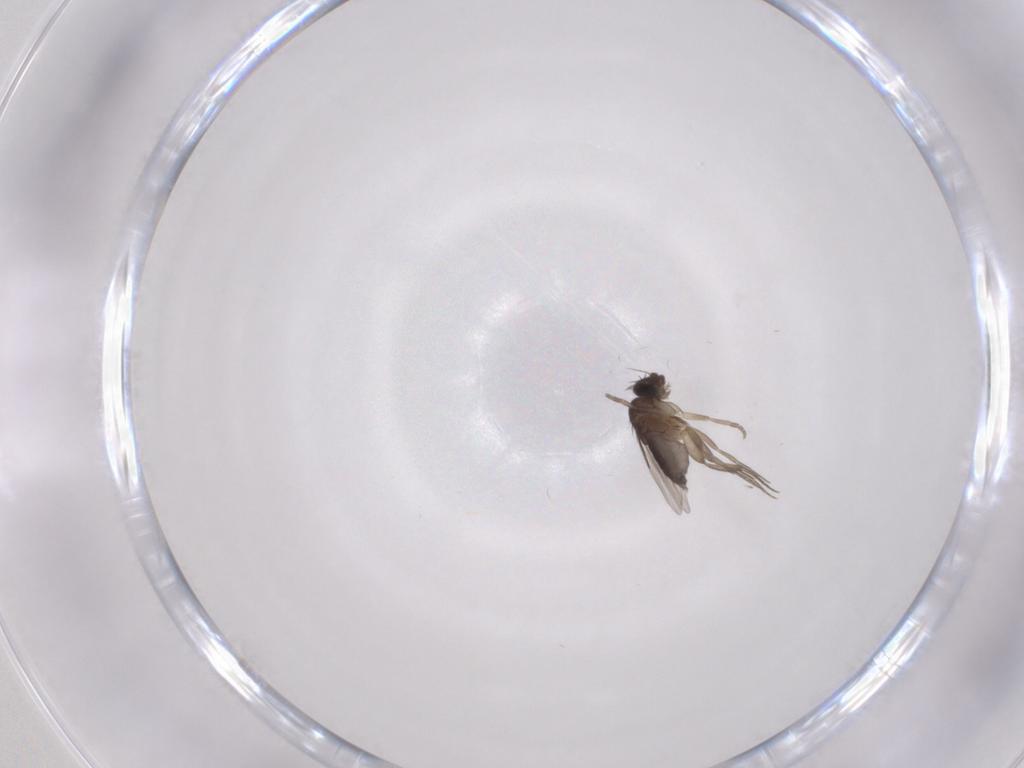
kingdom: Animalia
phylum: Arthropoda
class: Insecta
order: Diptera
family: Phoridae
